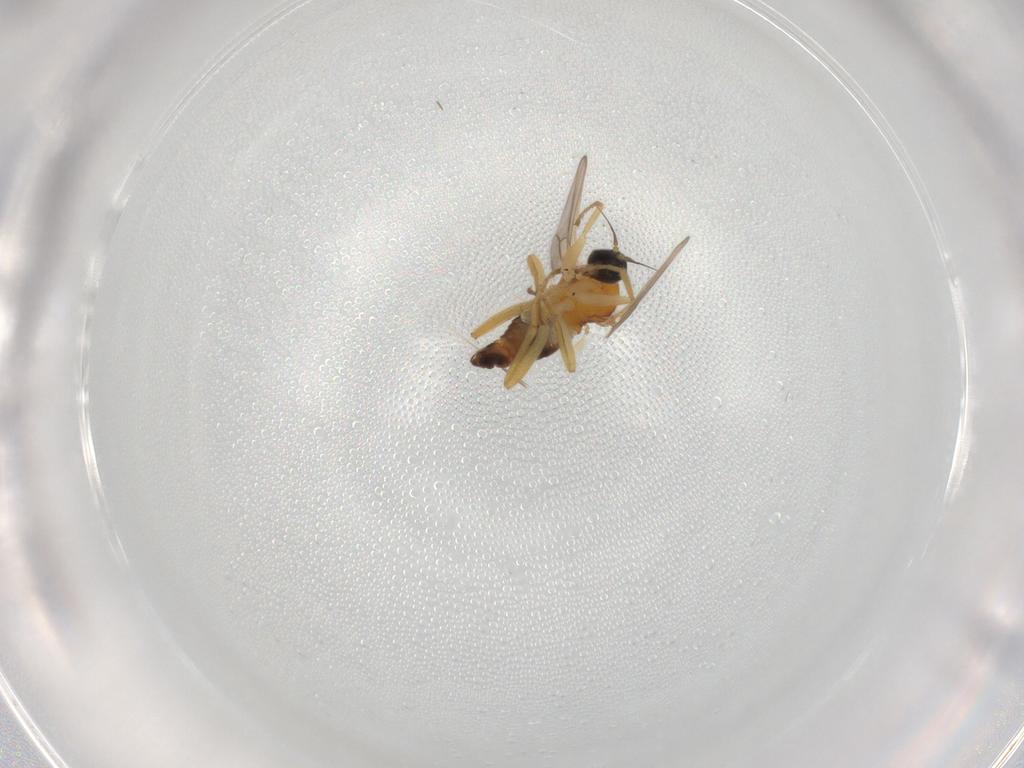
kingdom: Animalia
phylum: Arthropoda
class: Insecta
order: Diptera
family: Hybotidae
